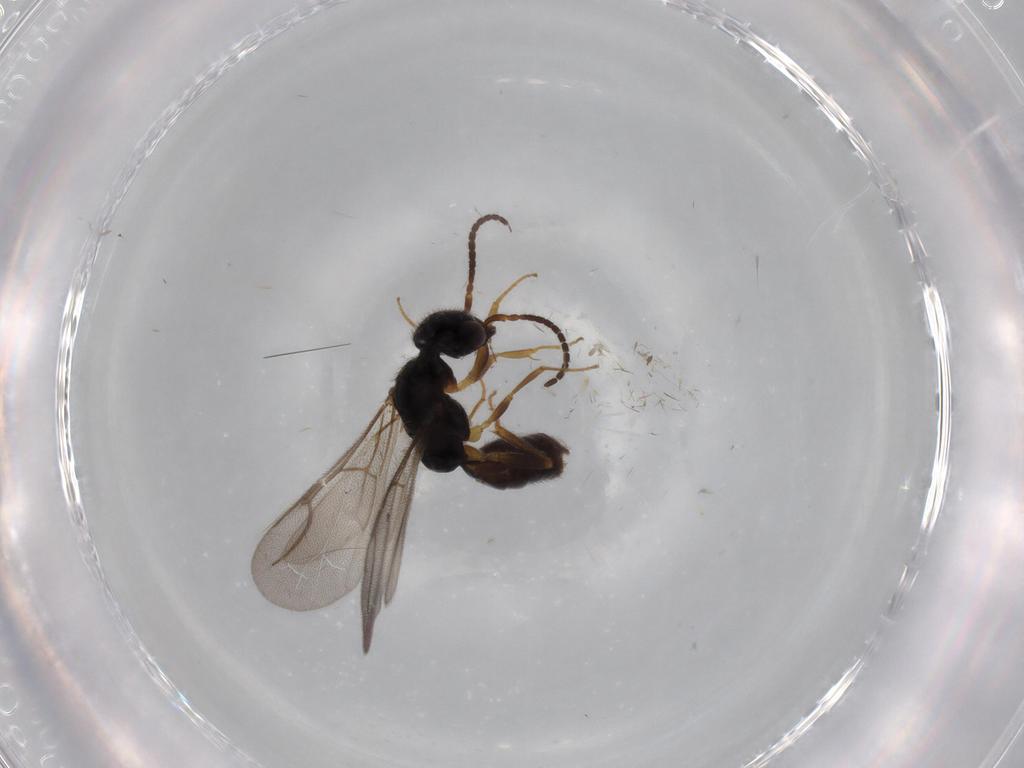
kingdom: Animalia
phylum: Arthropoda
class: Insecta
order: Hymenoptera
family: Bethylidae
